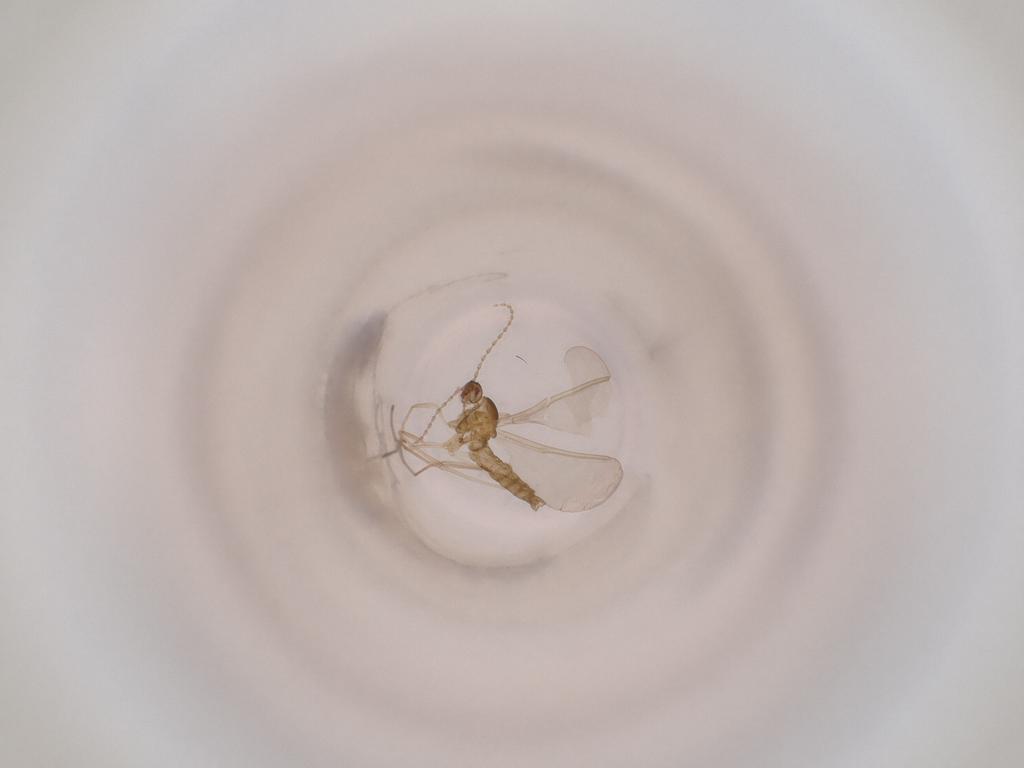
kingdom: Animalia
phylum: Arthropoda
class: Insecta
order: Diptera
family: Cecidomyiidae
